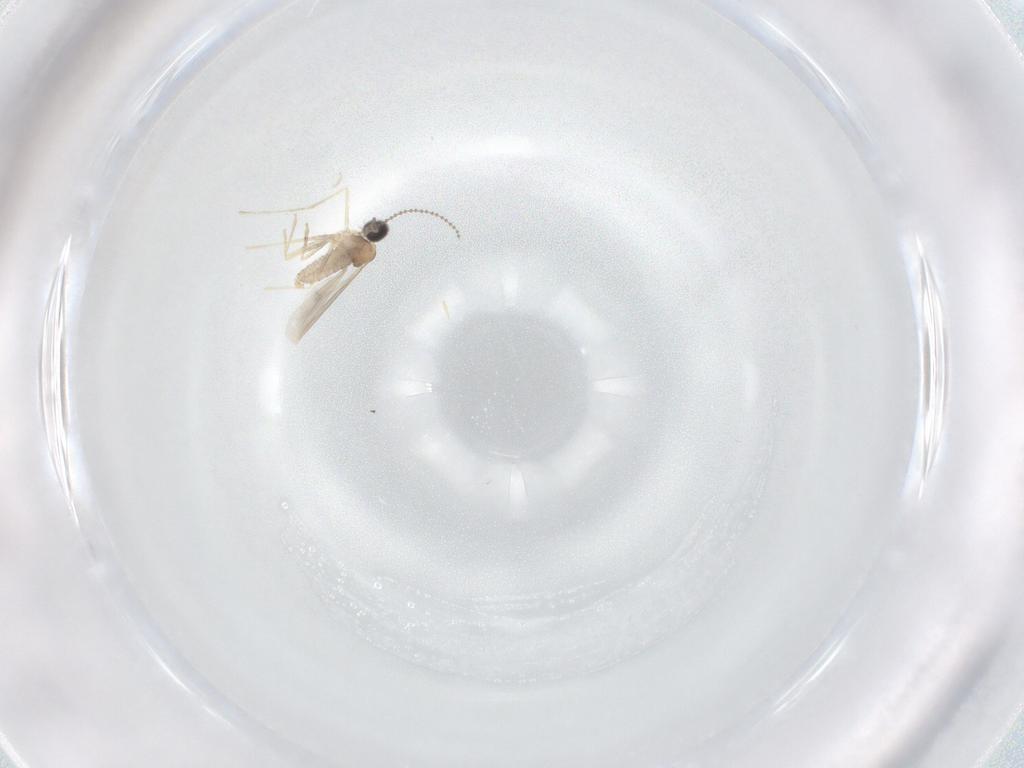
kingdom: Animalia
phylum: Arthropoda
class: Insecta
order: Diptera
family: Cecidomyiidae
